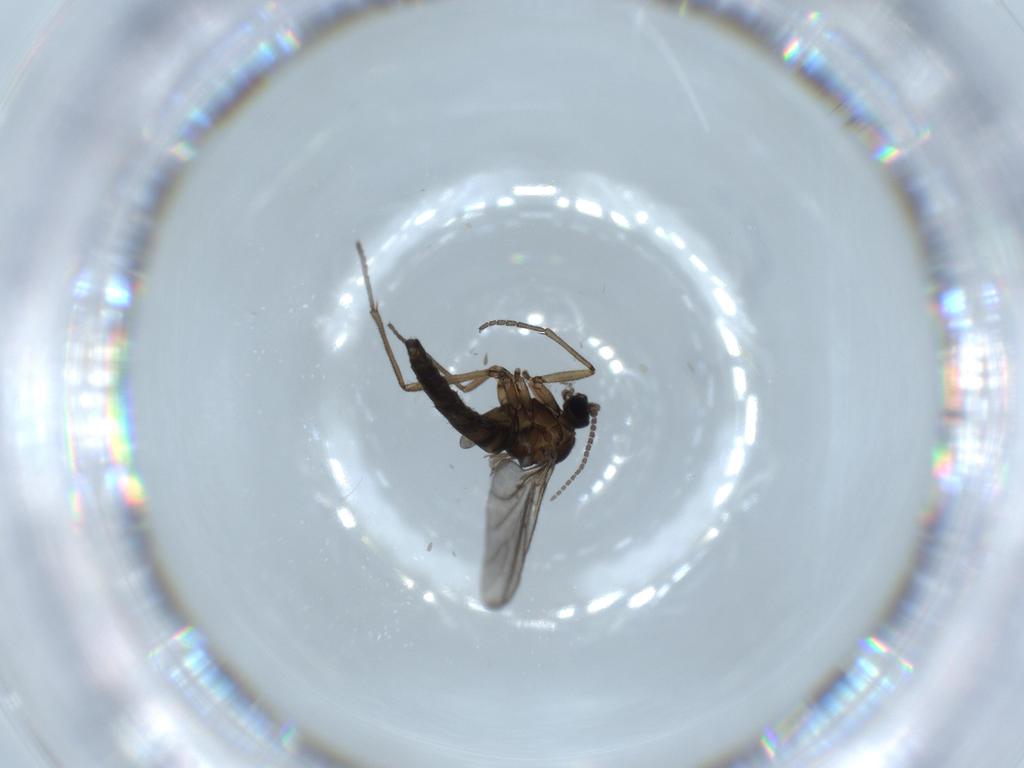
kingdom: Animalia
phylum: Arthropoda
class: Insecta
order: Diptera
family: Sciaridae
